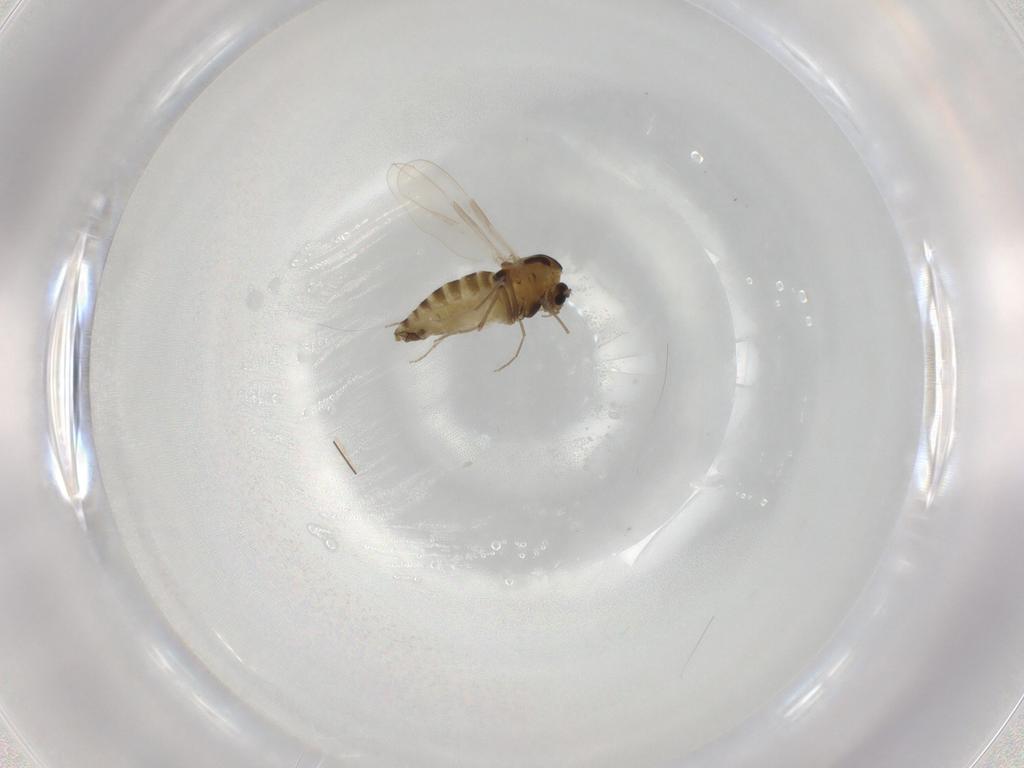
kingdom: Animalia
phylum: Arthropoda
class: Insecta
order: Diptera
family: Chironomidae
